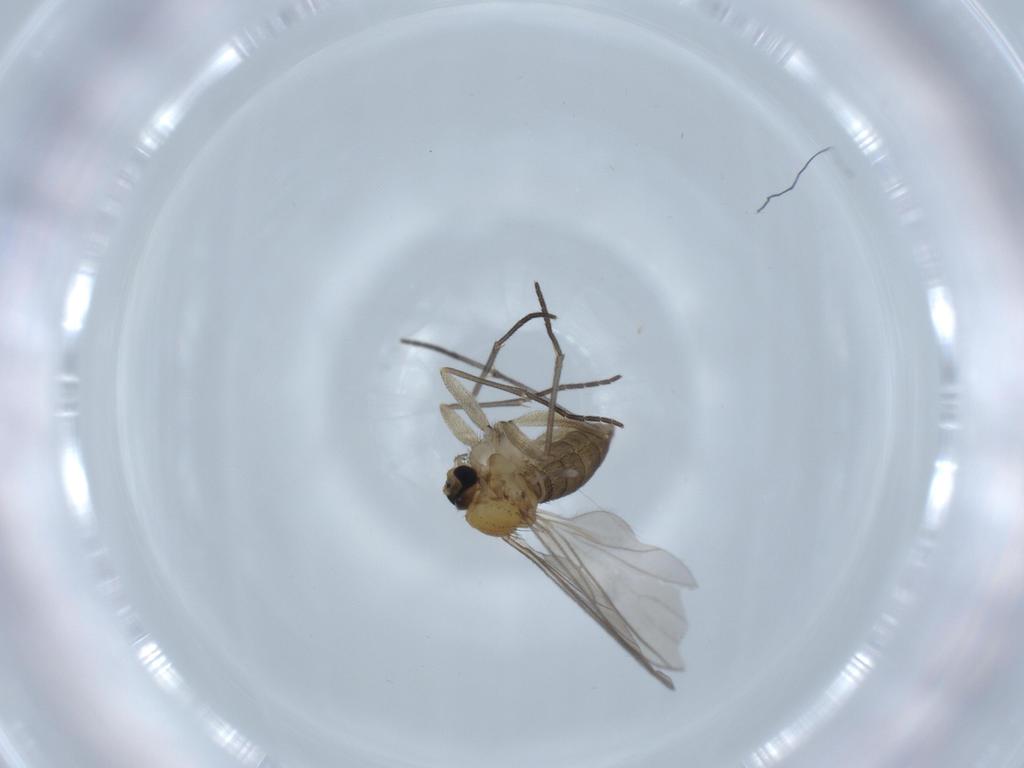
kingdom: Animalia
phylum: Arthropoda
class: Insecta
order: Diptera
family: Sciaridae
